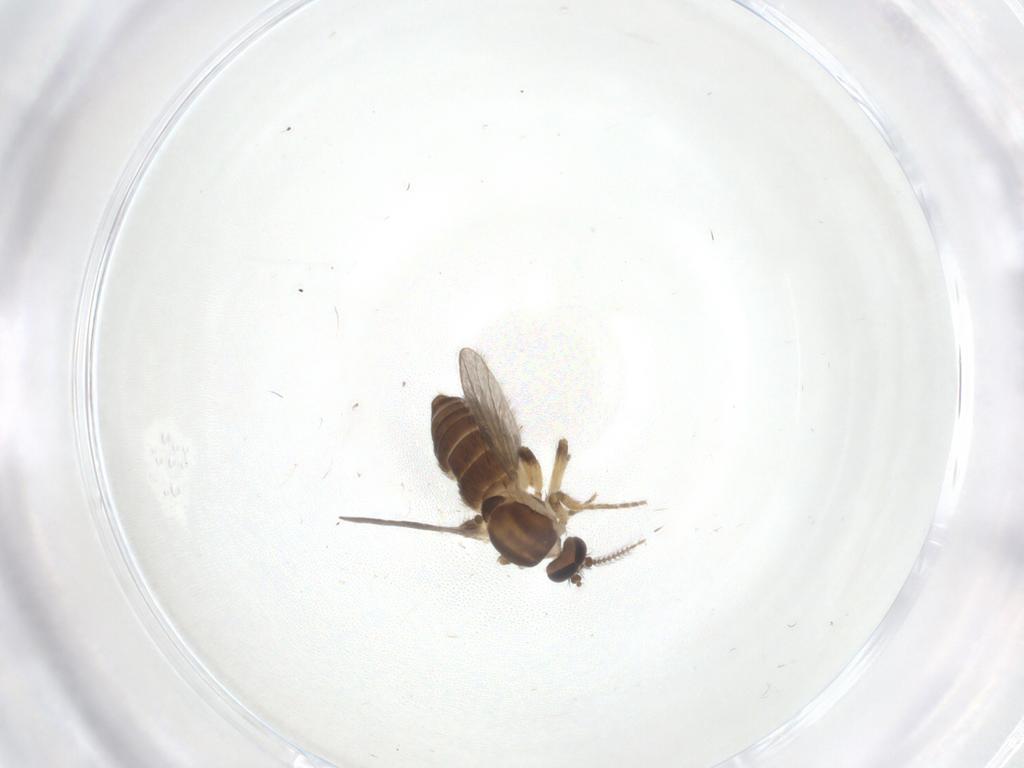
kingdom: Animalia
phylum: Arthropoda
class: Insecta
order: Diptera
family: Ceratopogonidae
